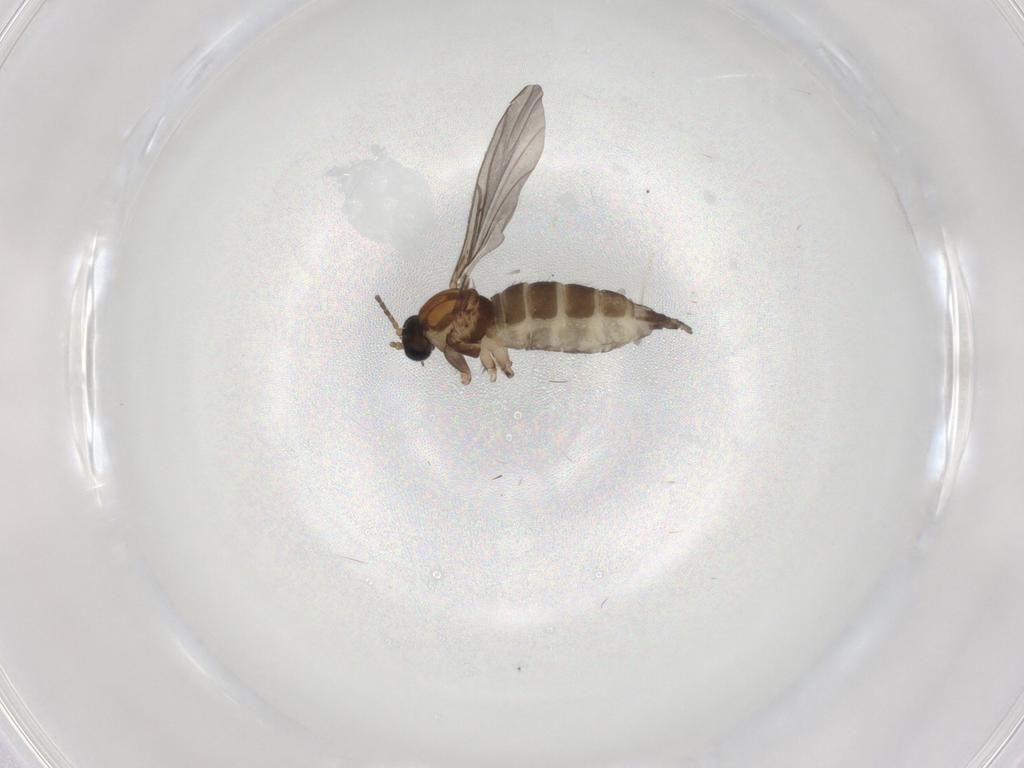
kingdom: Animalia
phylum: Arthropoda
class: Insecta
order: Diptera
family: Sciaridae
